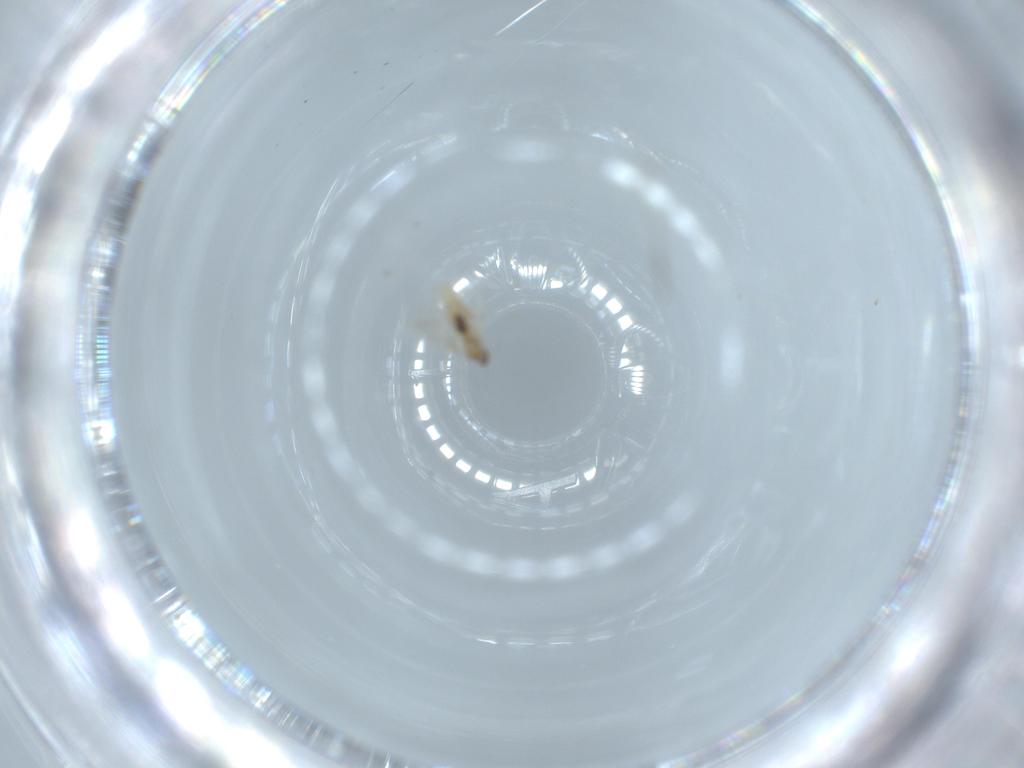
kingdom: Animalia
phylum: Arthropoda
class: Insecta
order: Diptera
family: Cecidomyiidae
